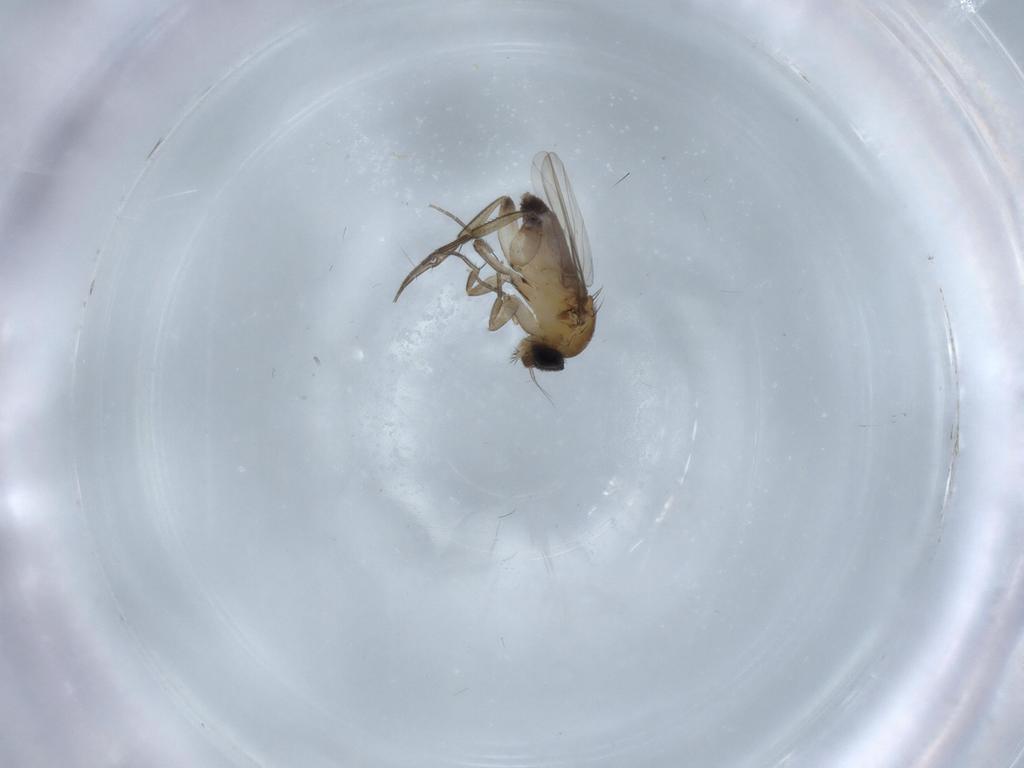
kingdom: Animalia
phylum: Arthropoda
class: Insecta
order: Diptera
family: Phoridae
